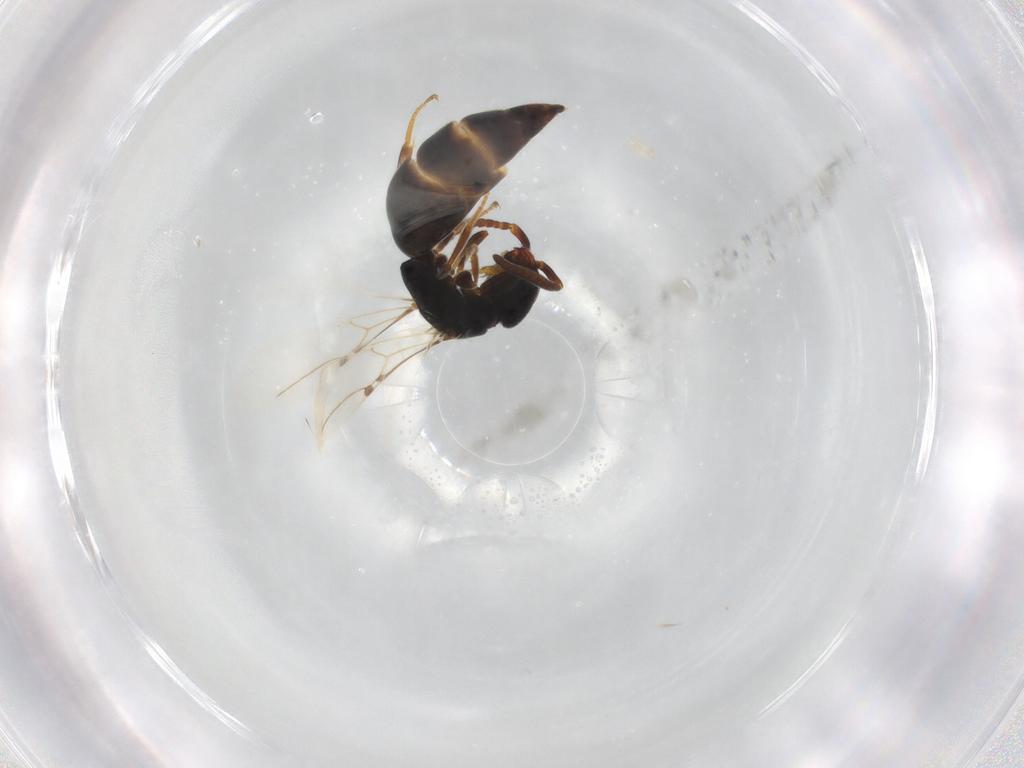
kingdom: Animalia
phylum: Arthropoda
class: Insecta
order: Hymenoptera
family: Bethylidae
